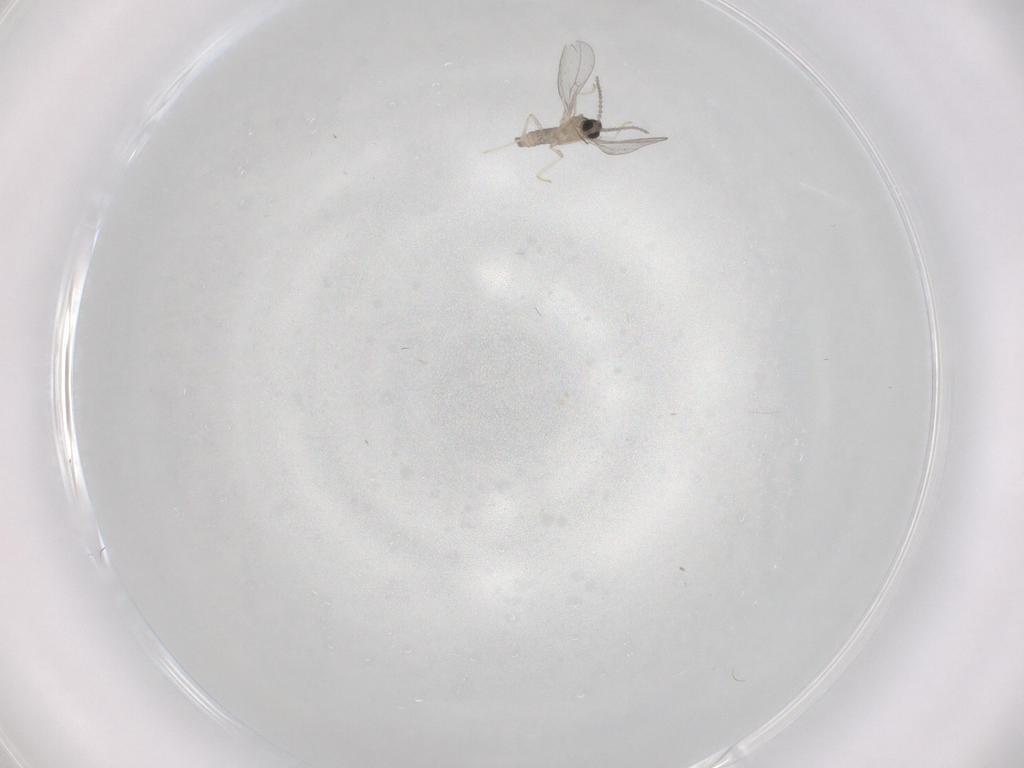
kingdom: Animalia
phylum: Arthropoda
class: Insecta
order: Diptera
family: Cecidomyiidae
